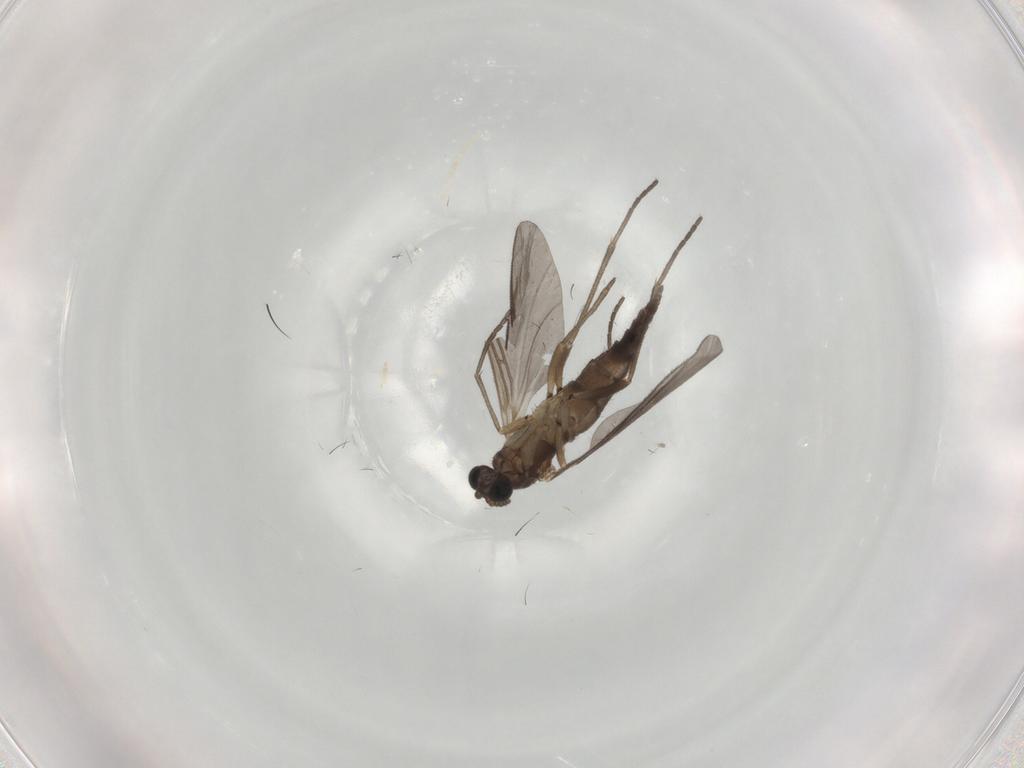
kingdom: Animalia
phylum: Arthropoda
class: Insecta
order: Diptera
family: Sciaridae
